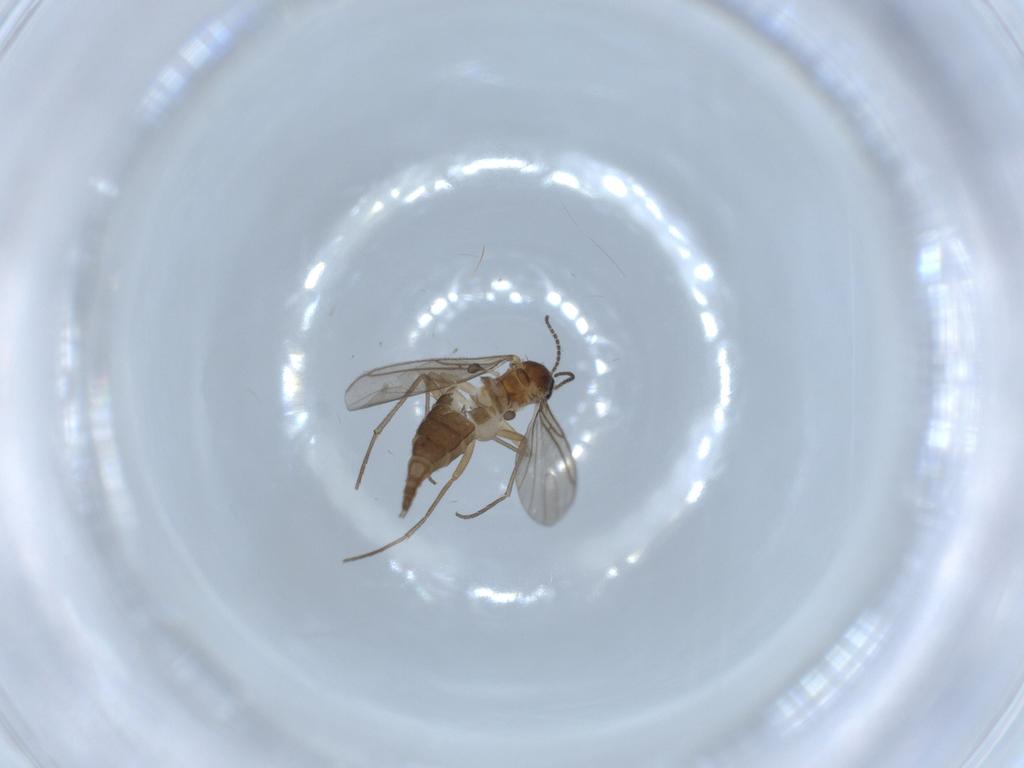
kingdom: Animalia
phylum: Arthropoda
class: Insecta
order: Diptera
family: Sciaridae
